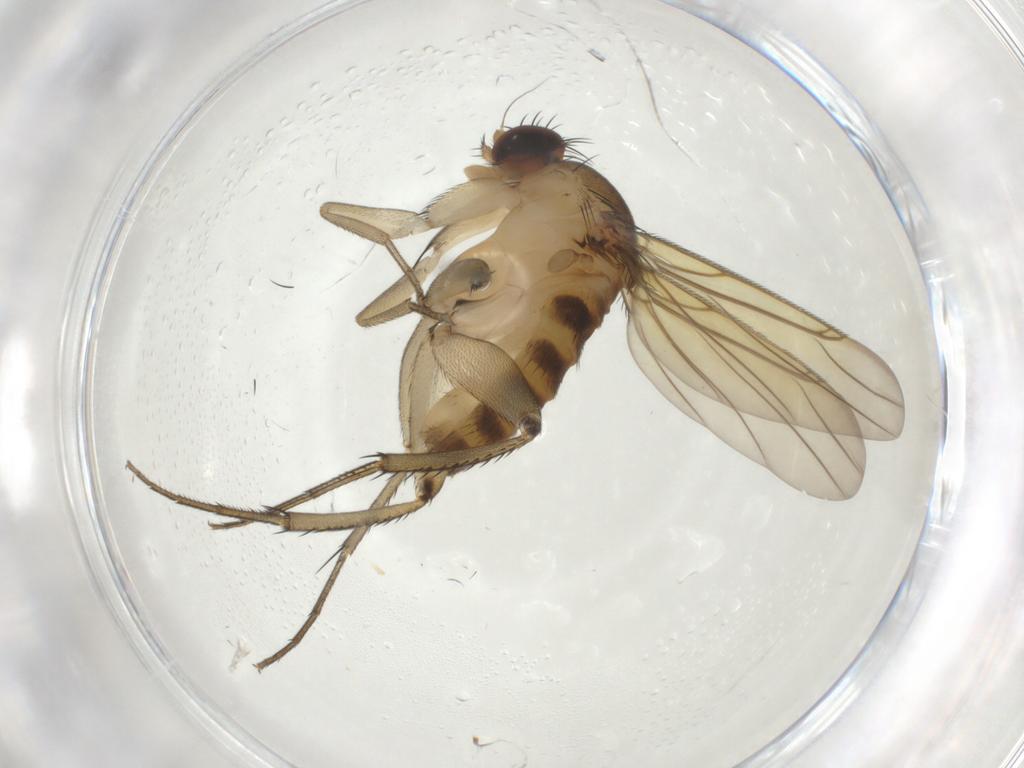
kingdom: Animalia
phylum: Arthropoda
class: Insecta
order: Diptera
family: Phoridae
